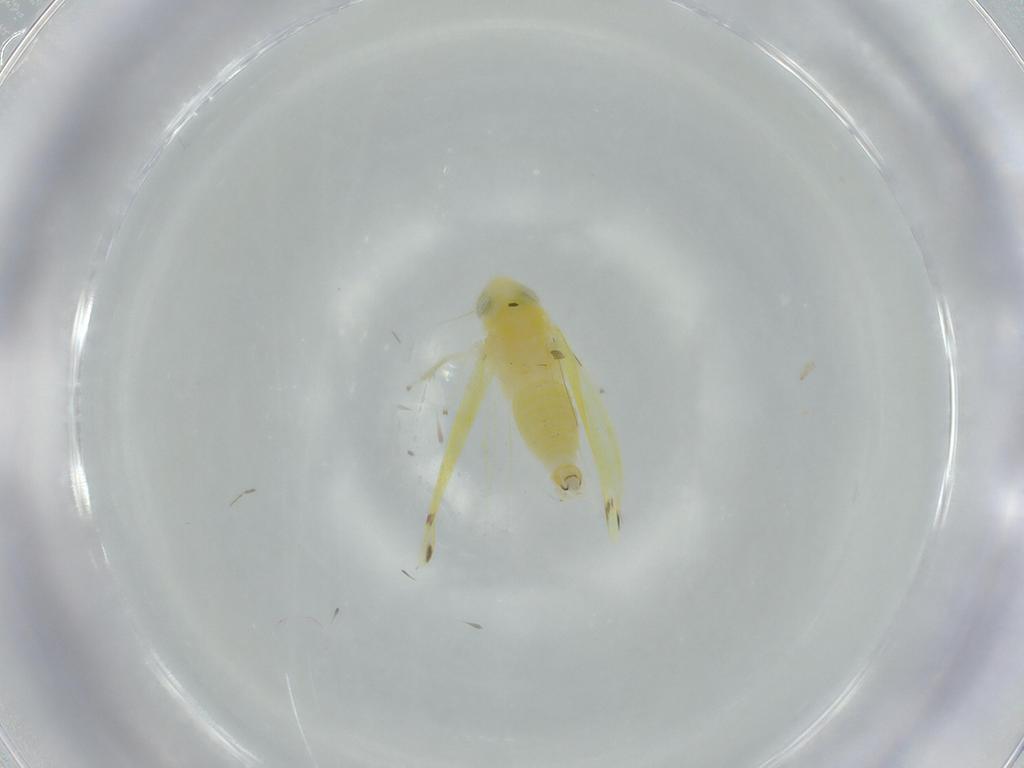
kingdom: Animalia
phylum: Arthropoda
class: Insecta
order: Hemiptera
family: Cicadellidae
